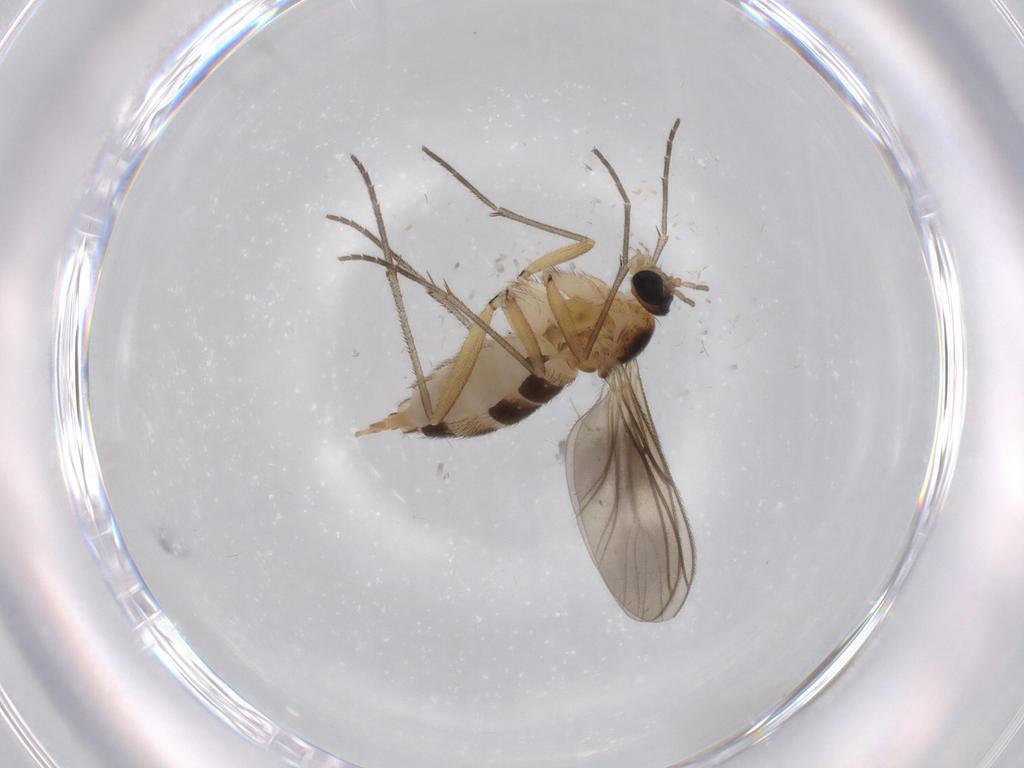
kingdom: Animalia
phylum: Arthropoda
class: Insecta
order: Diptera
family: Sciaridae
